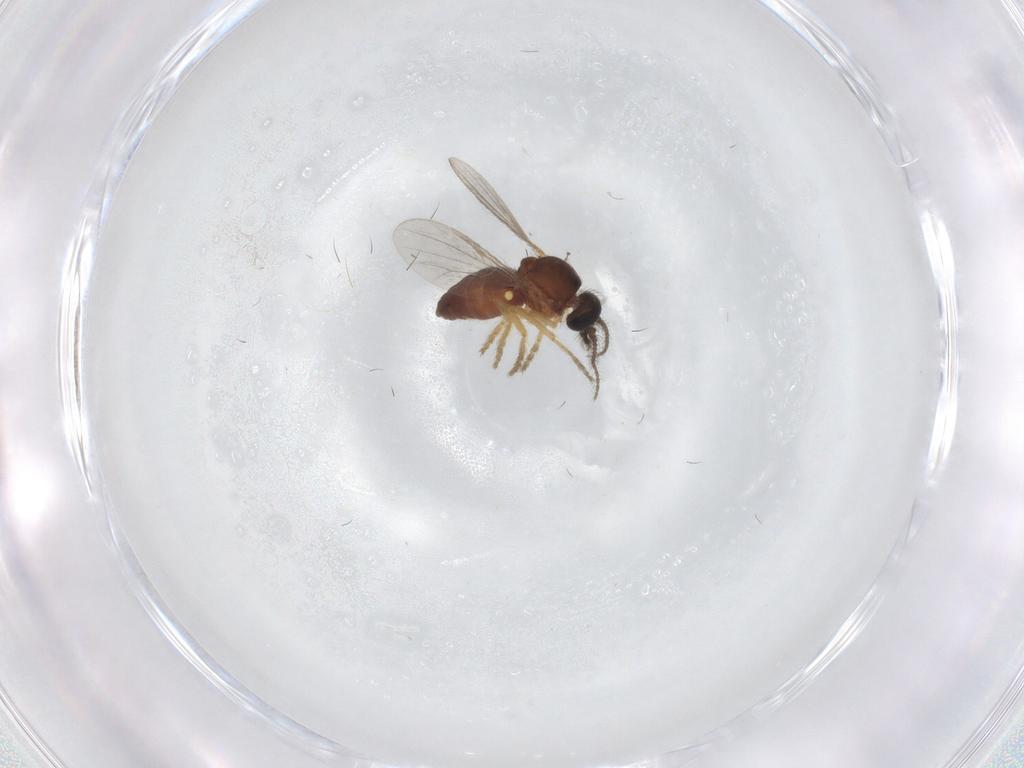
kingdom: Animalia
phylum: Arthropoda
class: Insecta
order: Diptera
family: Ceratopogonidae
